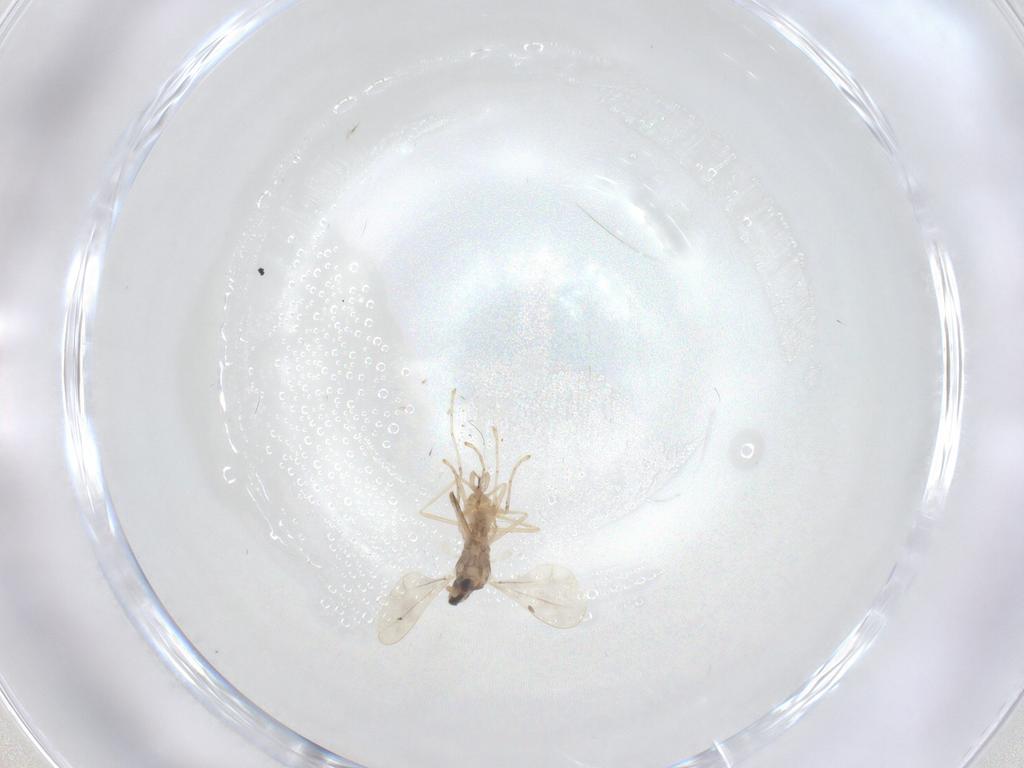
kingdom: Animalia
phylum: Arthropoda
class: Insecta
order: Diptera
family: Cecidomyiidae
